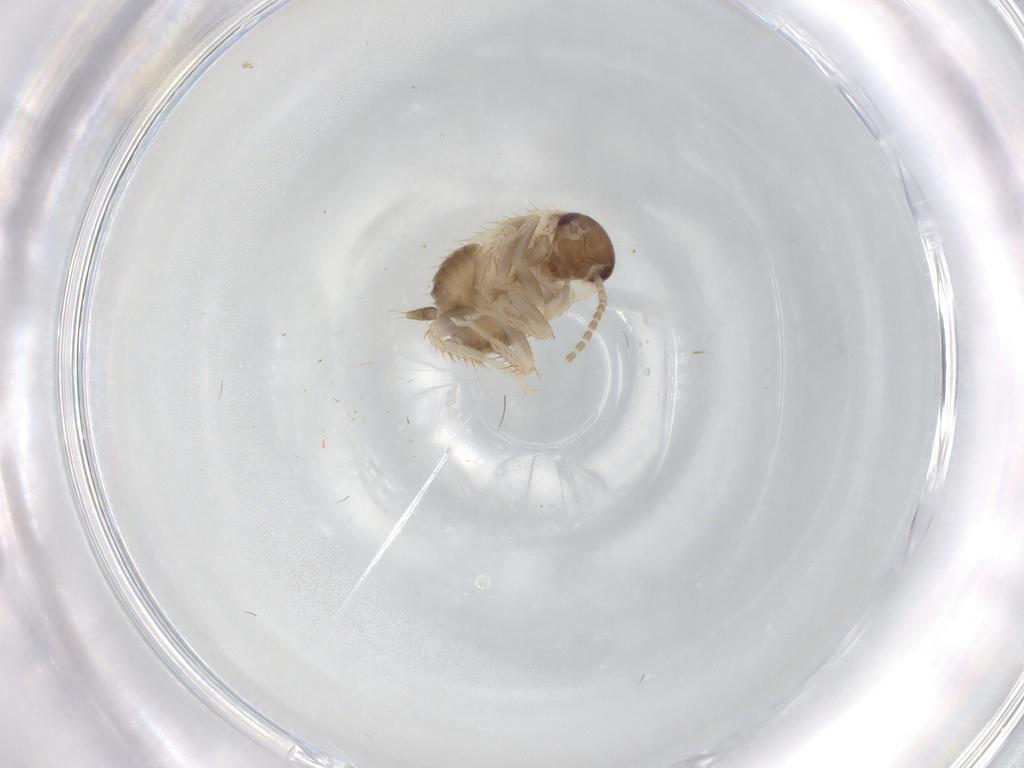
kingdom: Animalia
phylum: Arthropoda
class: Insecta
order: Blattodea
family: Ectobiidae
